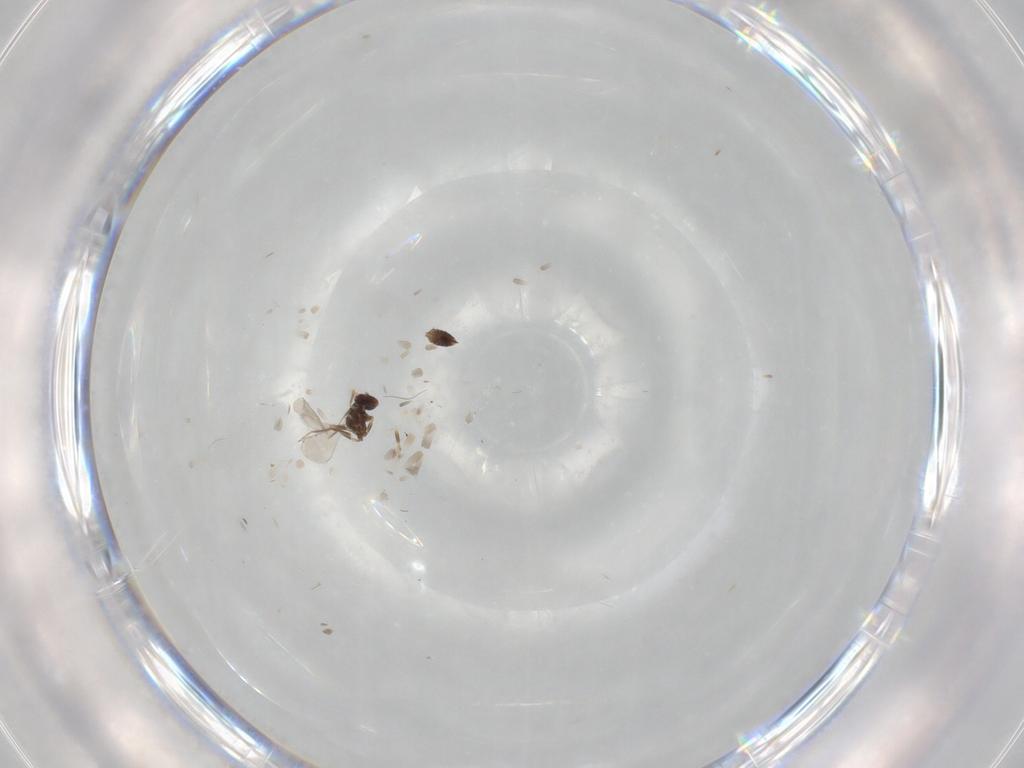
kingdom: Animalia
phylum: Arthropoda
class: Insecta
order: Hymenoptera
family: Mymaridae
